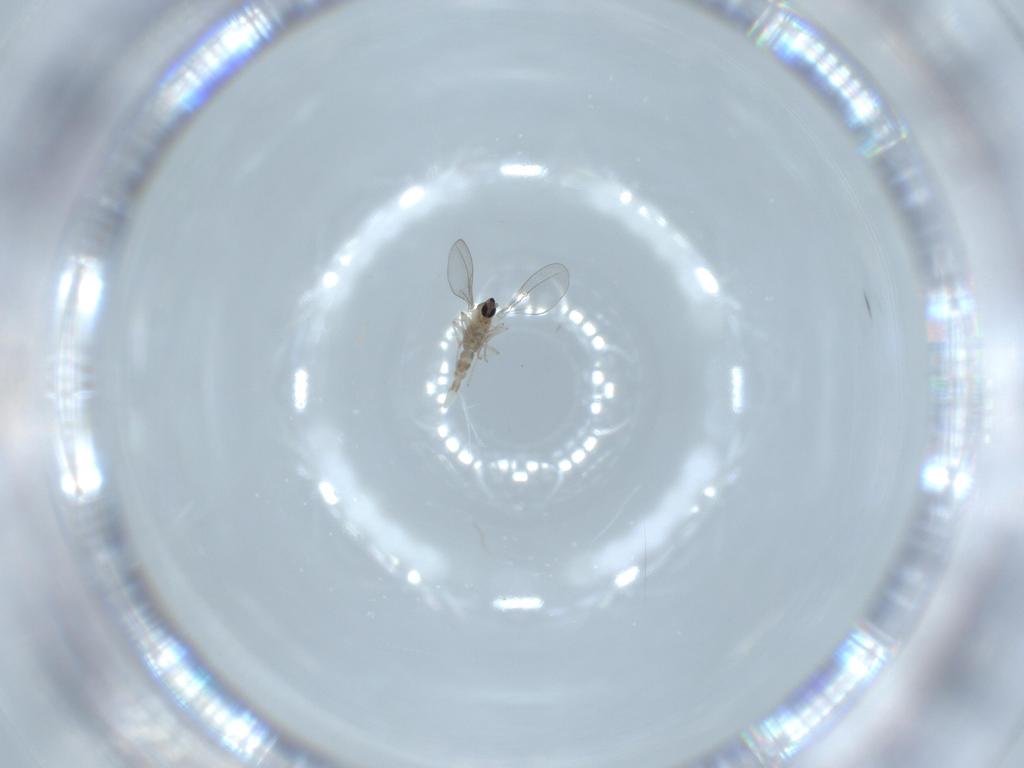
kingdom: Animalia
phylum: Arthropoda
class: Insecta
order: Diptera
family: Cecidomyiidae
